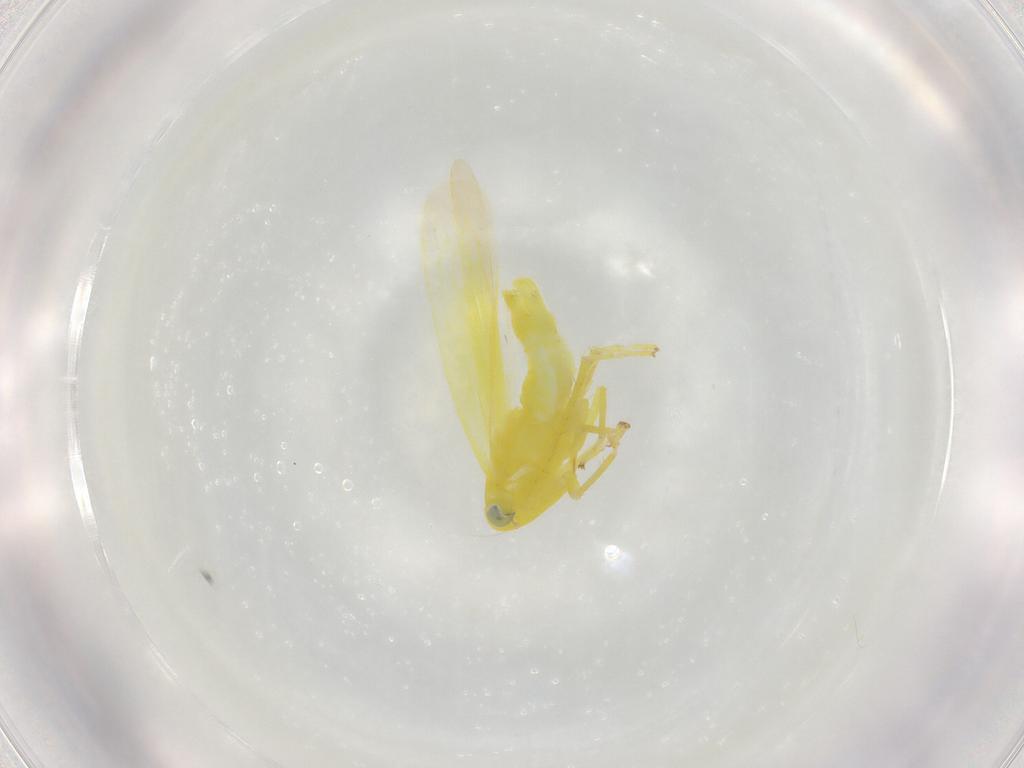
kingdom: Animalia
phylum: Arthropoda
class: Insecta
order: Hemiptera
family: Cicadellidae
